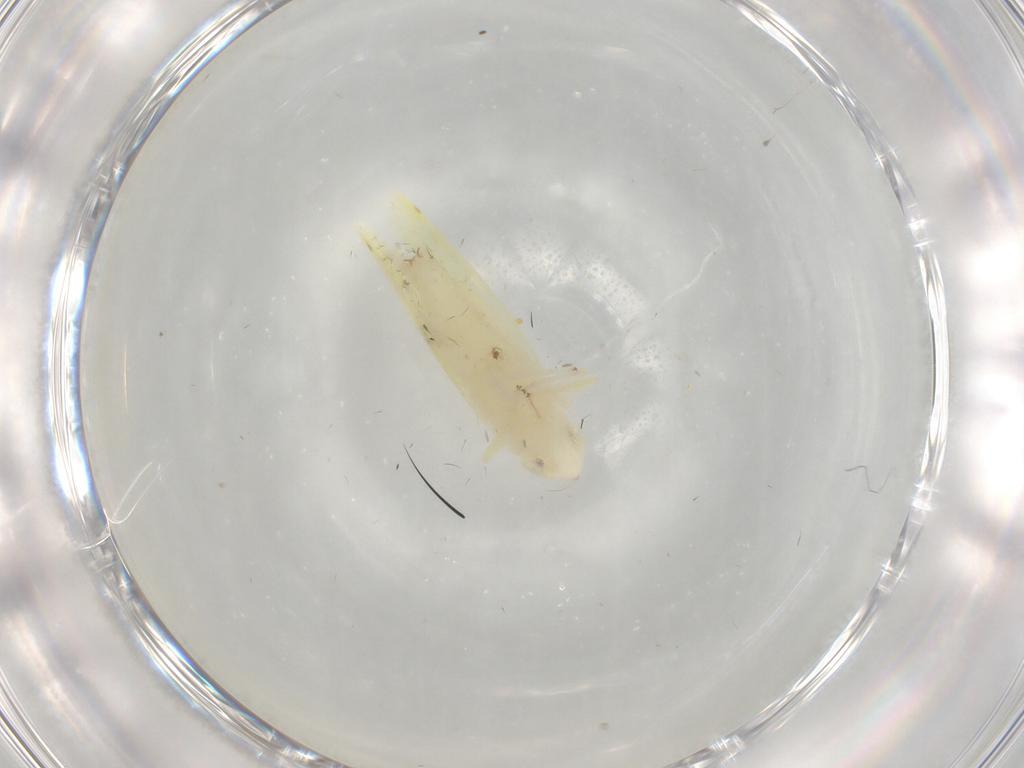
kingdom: Animalia
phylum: Arthropoda
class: Insecta
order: Hemiptera
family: Cicadellidae
